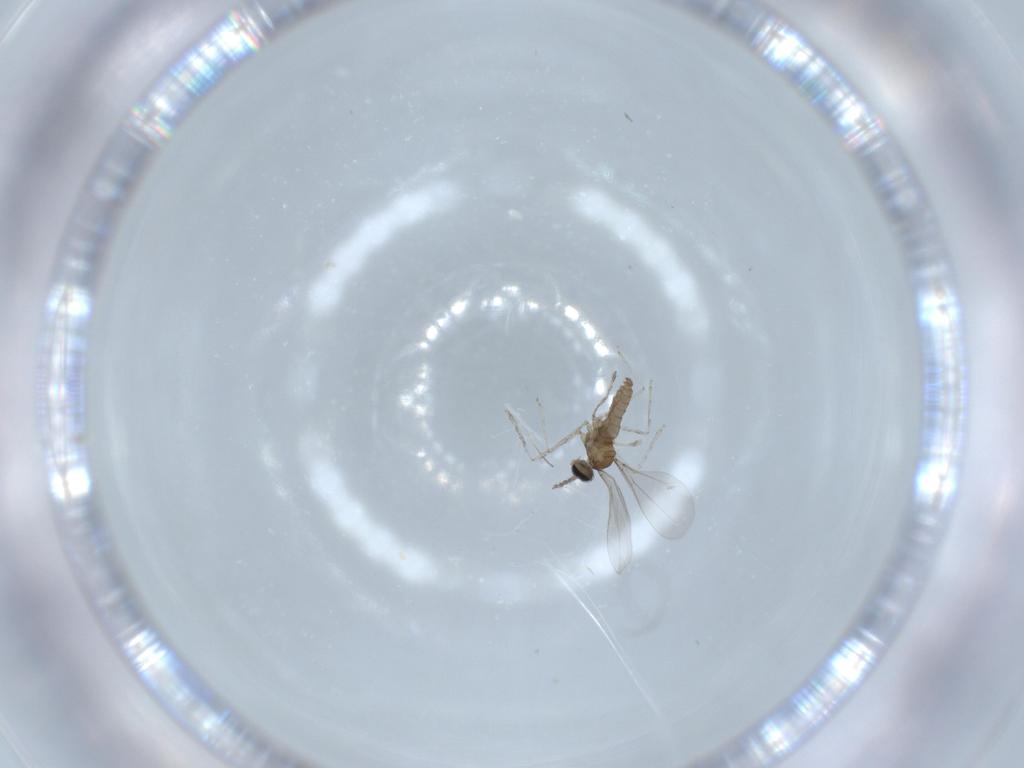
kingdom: Animalia
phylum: Arthropoda
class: Insecta
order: Diptera
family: Cecidomyiidae
